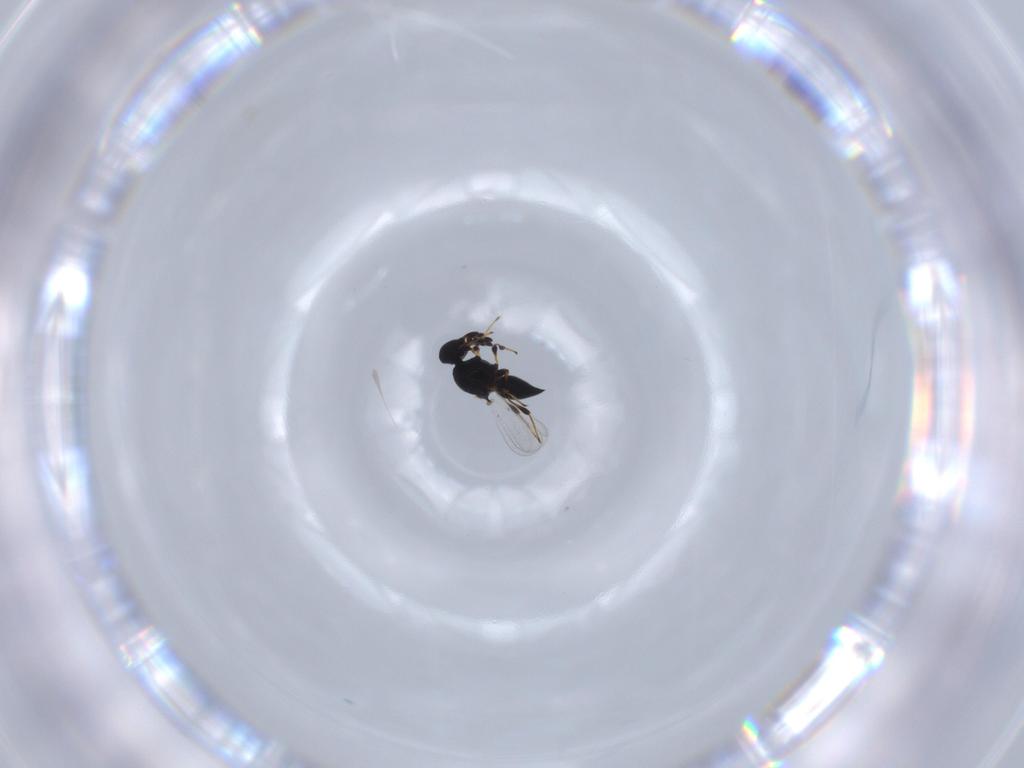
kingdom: Animalia
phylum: Arthropoda
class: Insecta
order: Hymenoptera
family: Platygastridae
